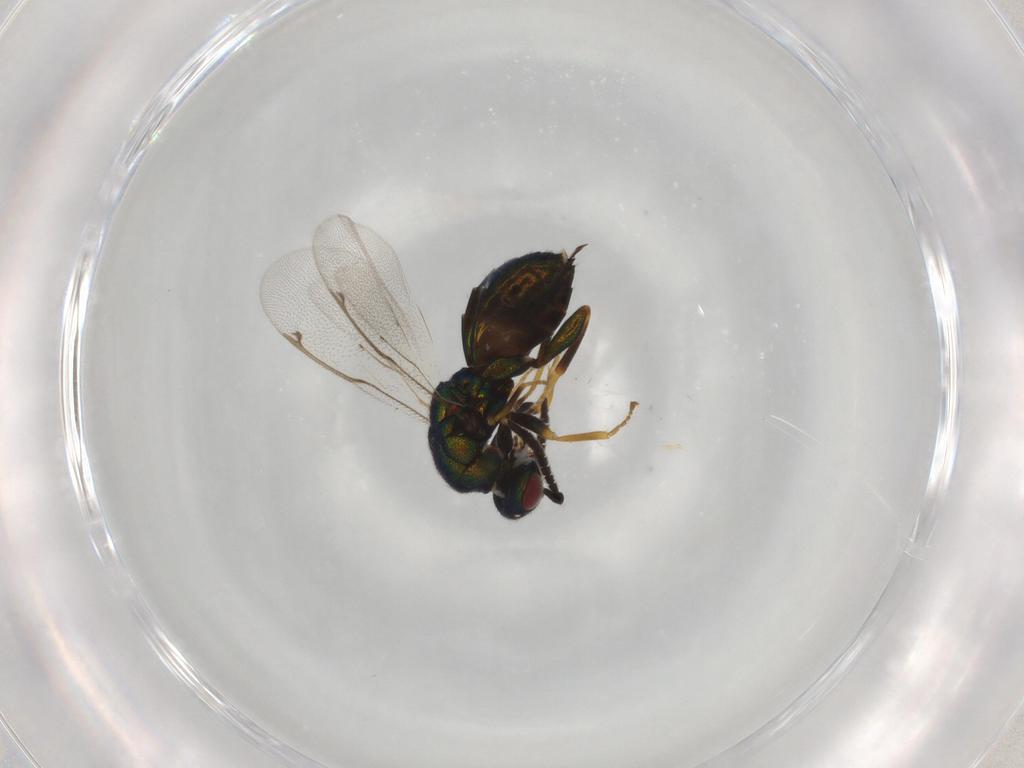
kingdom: Animalia
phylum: Arthropoda
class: Insecta
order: Hymenoptera
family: Torymidae
